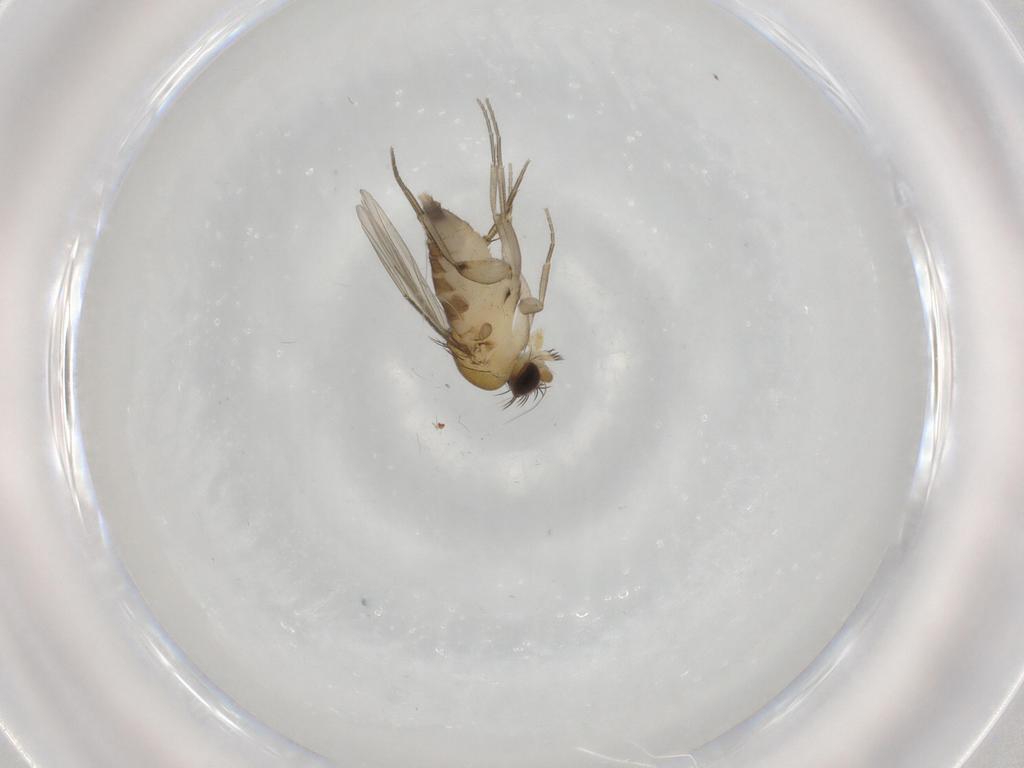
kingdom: Animalia
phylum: Arthropoda
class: Insecta
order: Diptera
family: Phoridae
